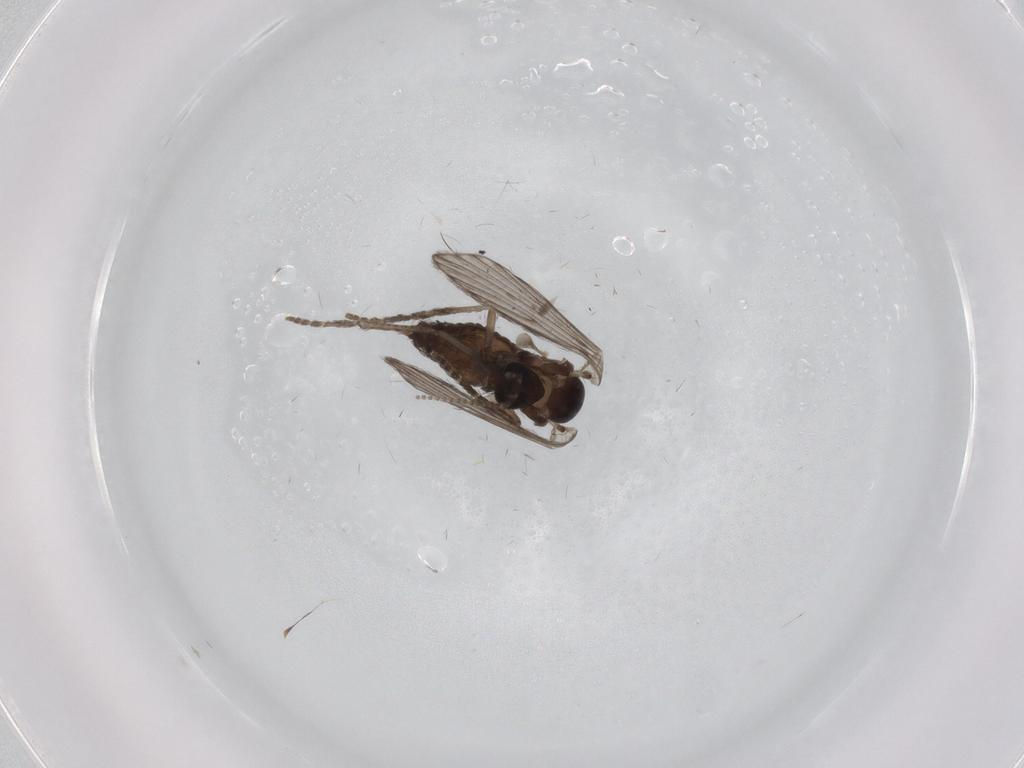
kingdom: Animalia
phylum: Arthropoda
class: Insecta
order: Diptera
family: Psychodidae
